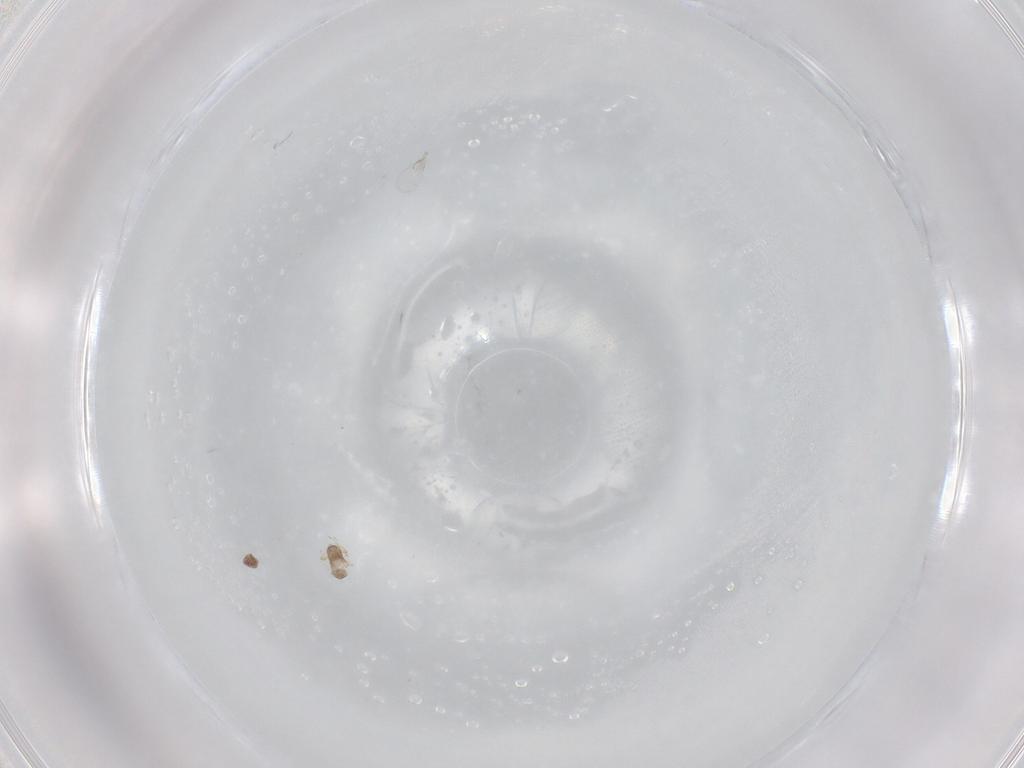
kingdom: Animalia
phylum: Arthropoda
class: Insecta
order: Hymenoptera
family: Trichogrammatidae
